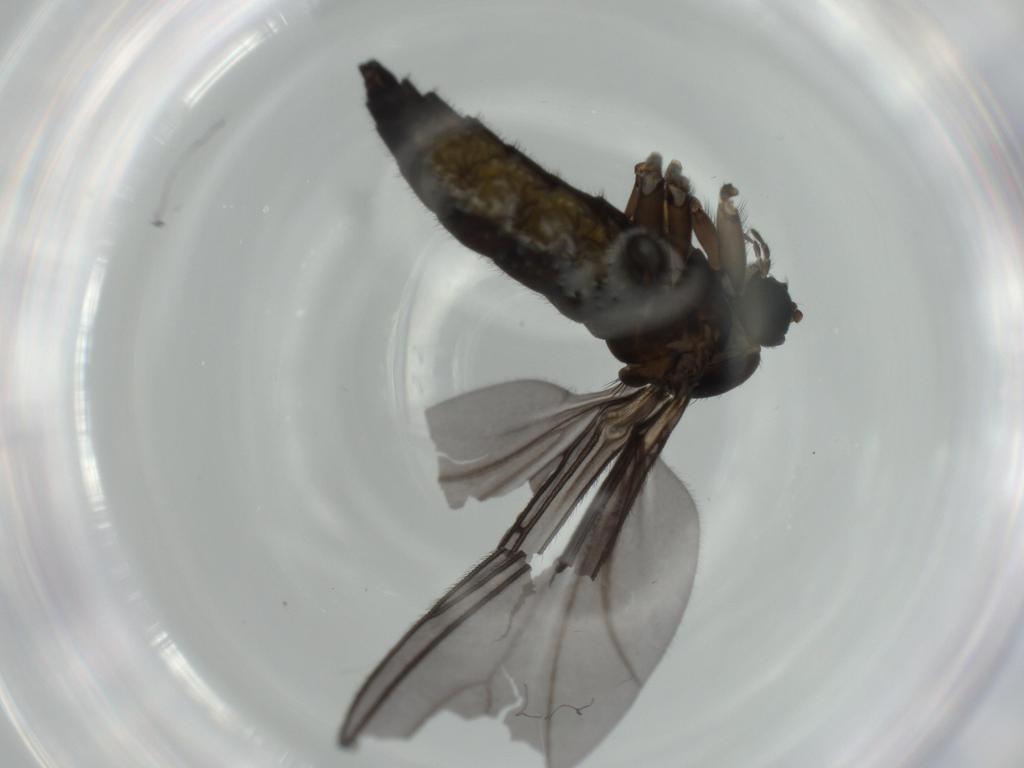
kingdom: Animalia
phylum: Arthropoda
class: Insecta
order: Diptera
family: Sciaridae
